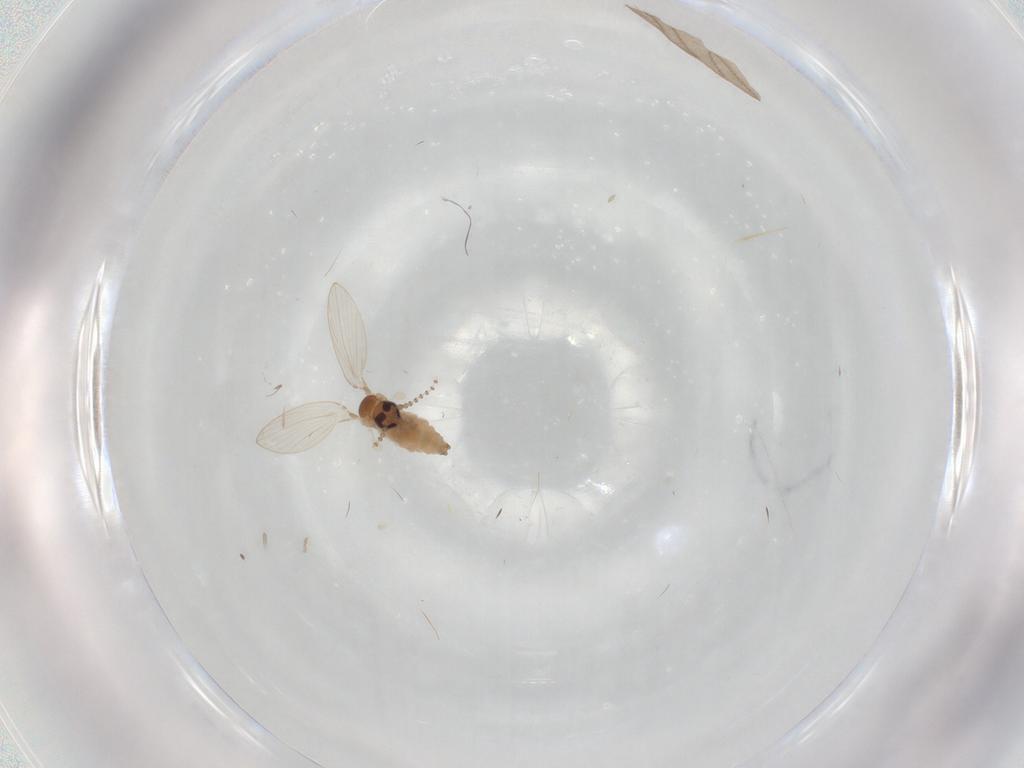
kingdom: Animalia
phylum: Arthropoda
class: Insecta
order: Diptera
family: Psychodidae
